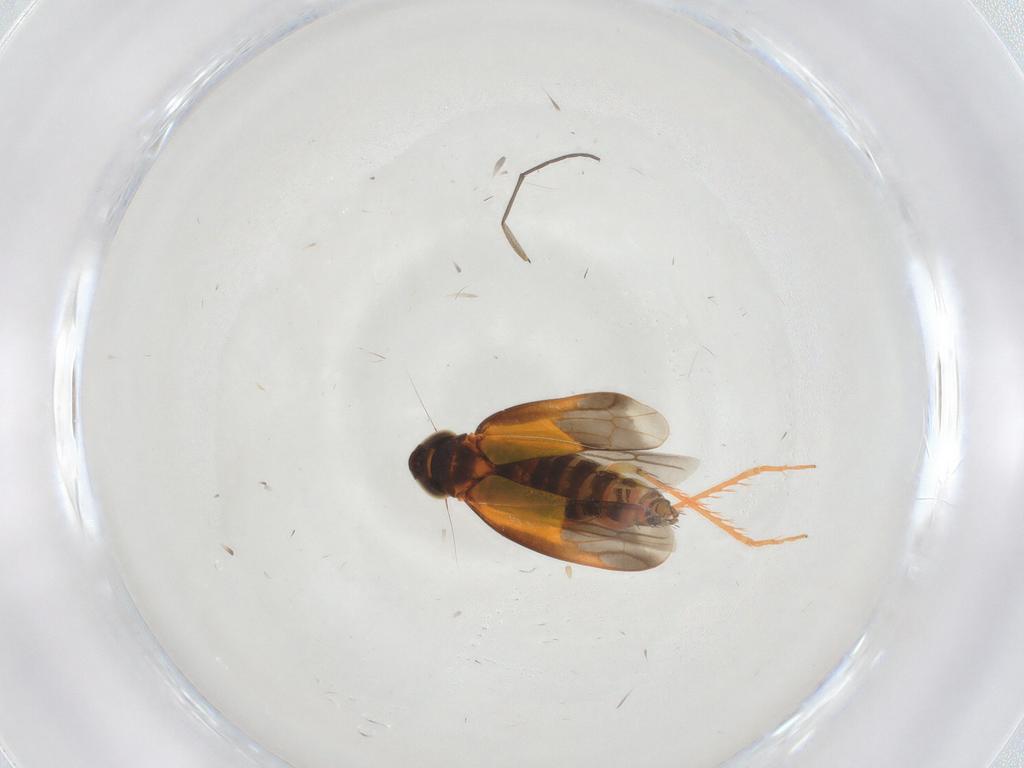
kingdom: Animalia
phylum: Arthropoda
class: Insecta
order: Hemiptera
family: Cicadellidae
